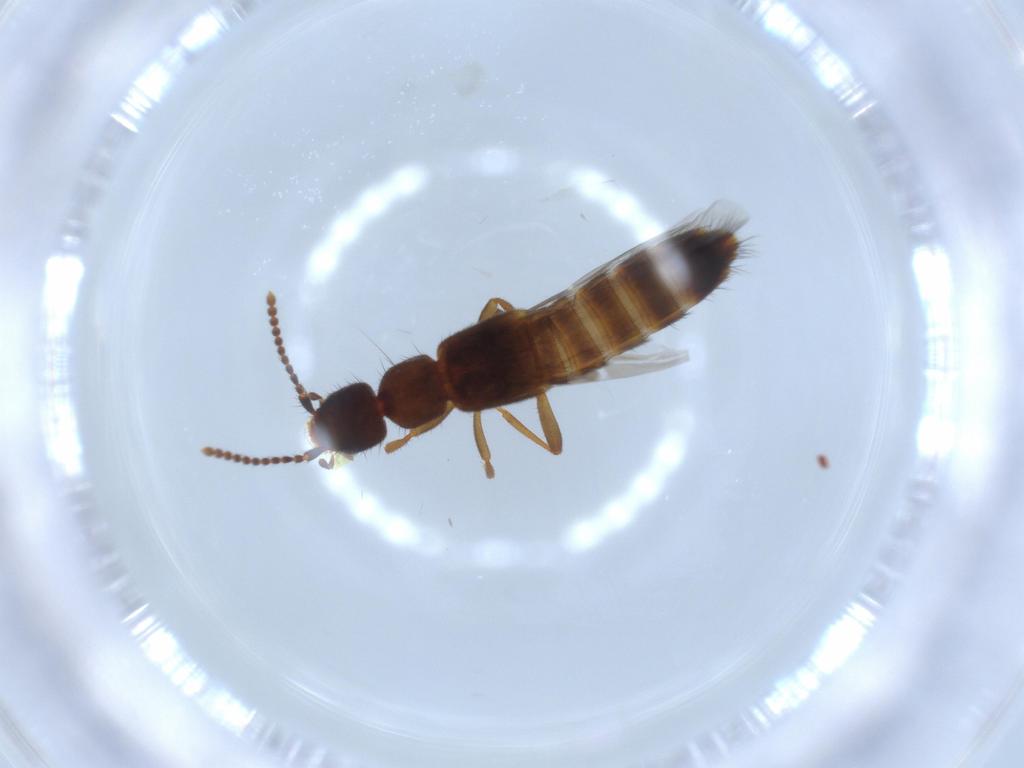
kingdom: Animalia
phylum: Arthropoda
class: Insecta
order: Coleoptera
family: Staphylinidae
